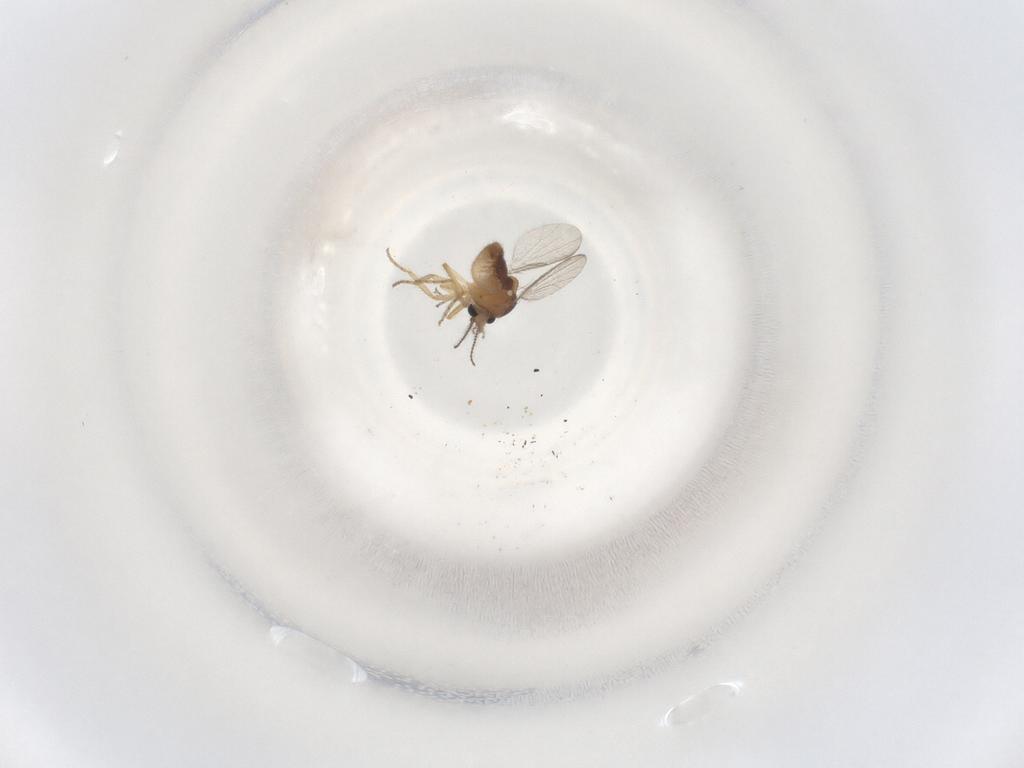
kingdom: Animalia
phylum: Arthropoda
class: Insecta
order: Diptera
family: Ceratopogonidae
